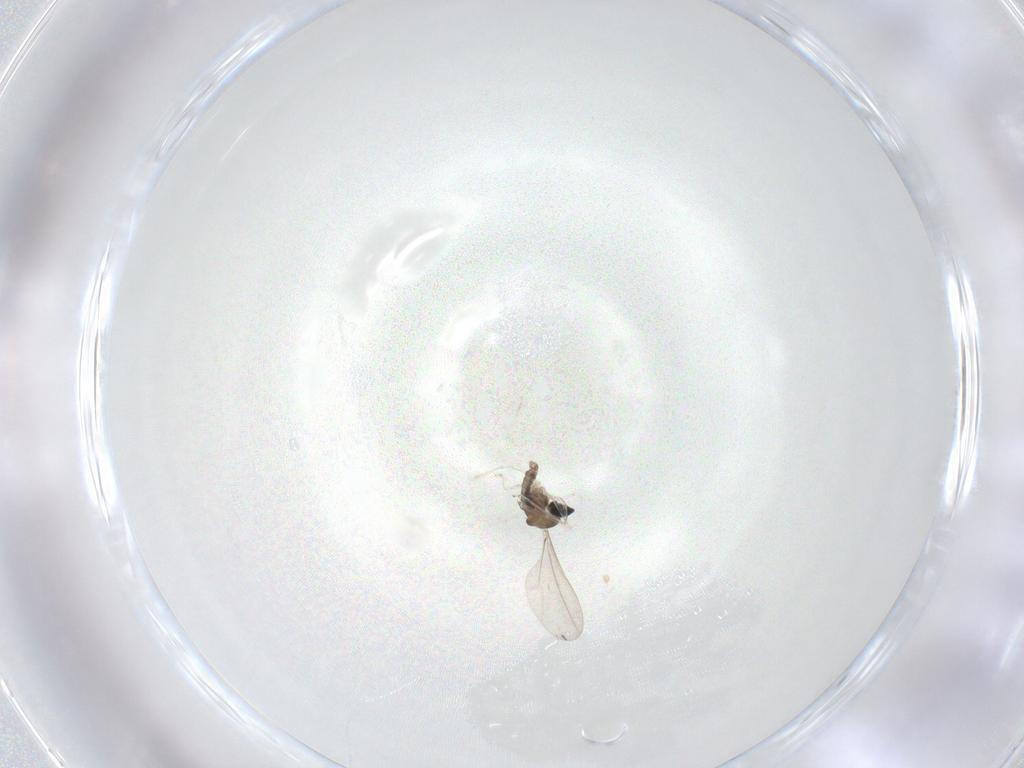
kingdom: Animalia
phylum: Arthropoda
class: Insecta
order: Diptera
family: Cecidomyiidae
